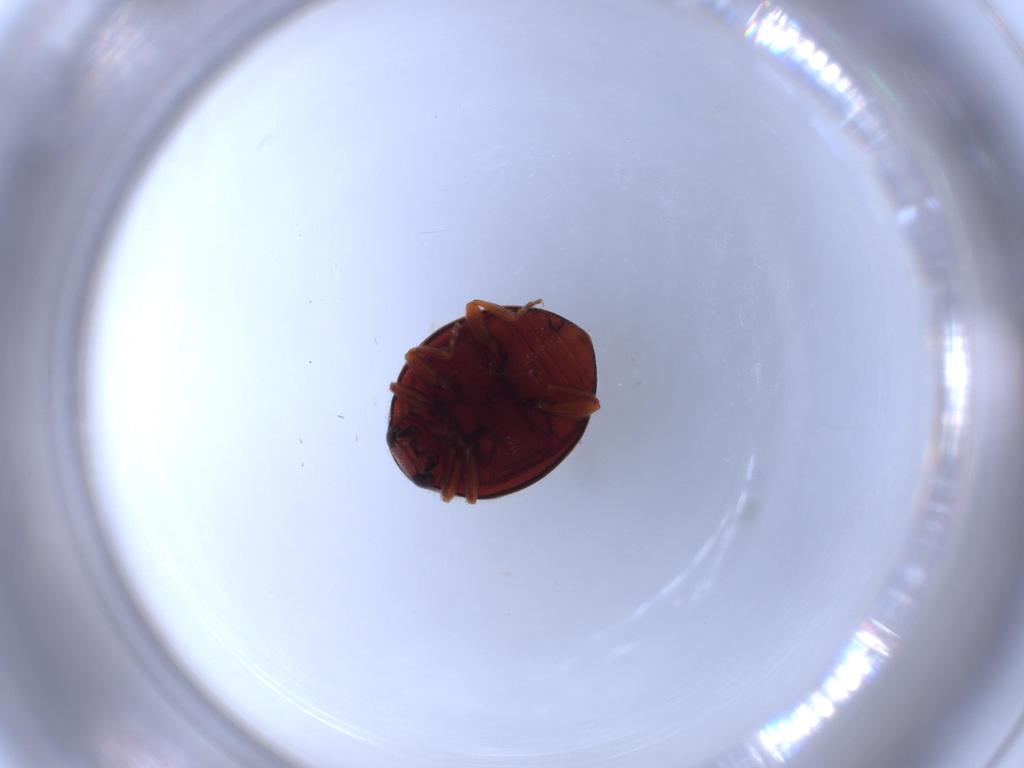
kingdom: Animalia
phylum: Arthropoda
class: Insecta
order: Coleoptera
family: Coccinellidae
